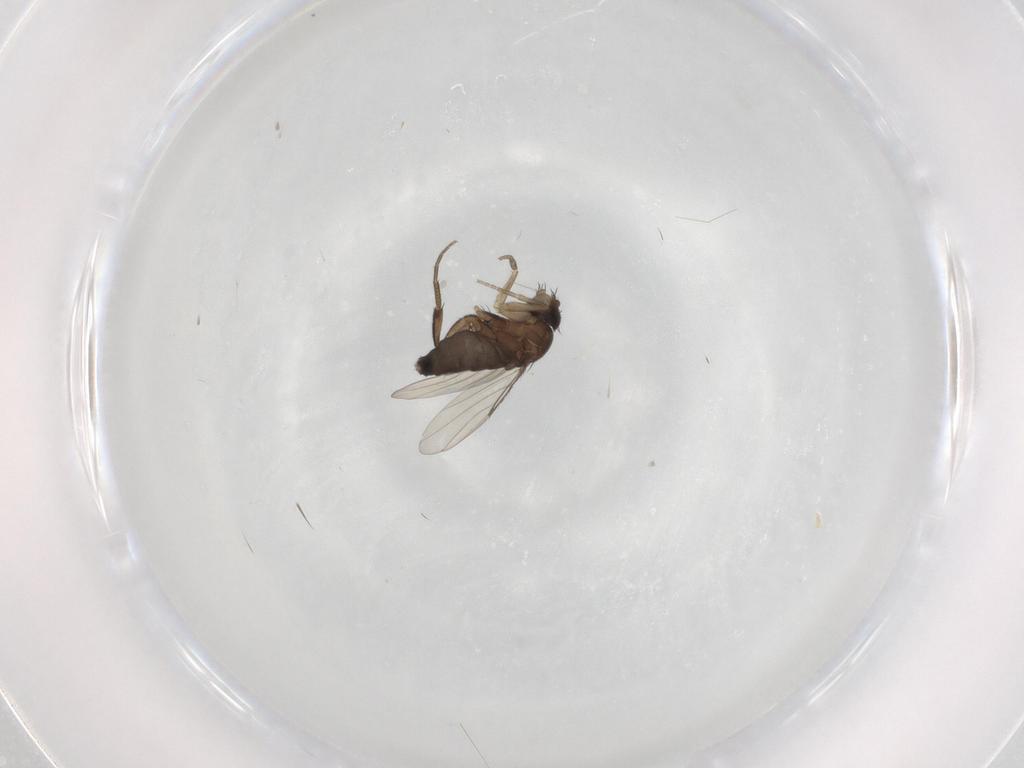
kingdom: Animalia
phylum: Arthropoda
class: Insecta
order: Diptera
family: Phoridae
